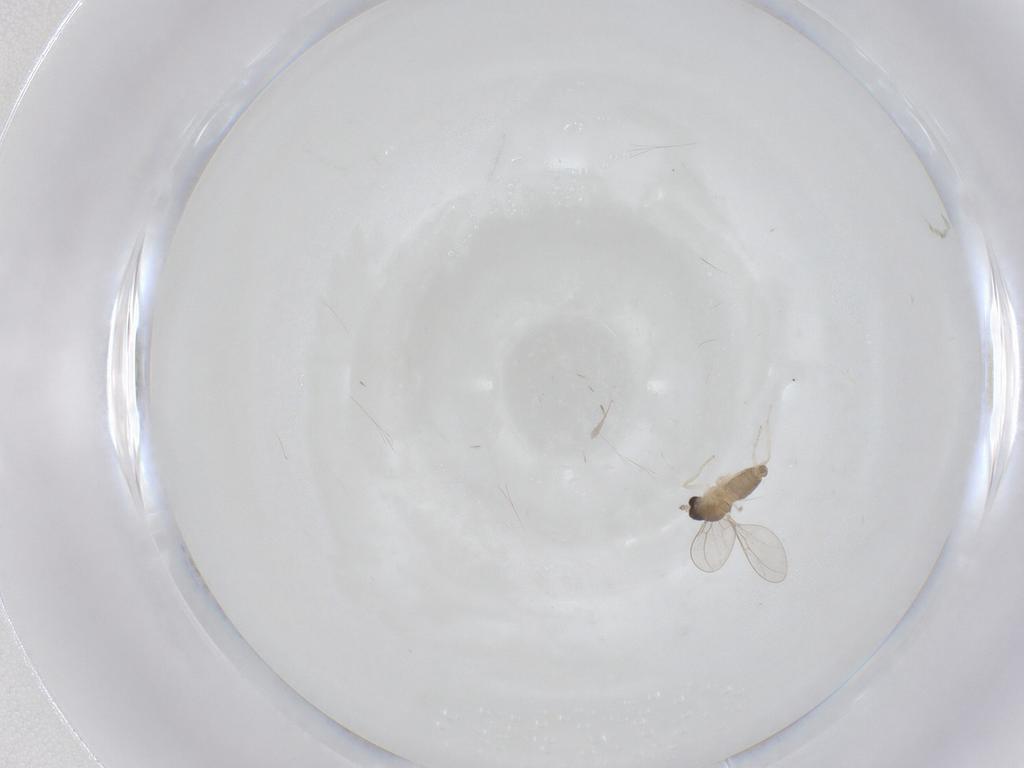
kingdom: Animalia
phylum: Arthropoda
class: Insecta
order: Diptera
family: Cecidomyiidae
